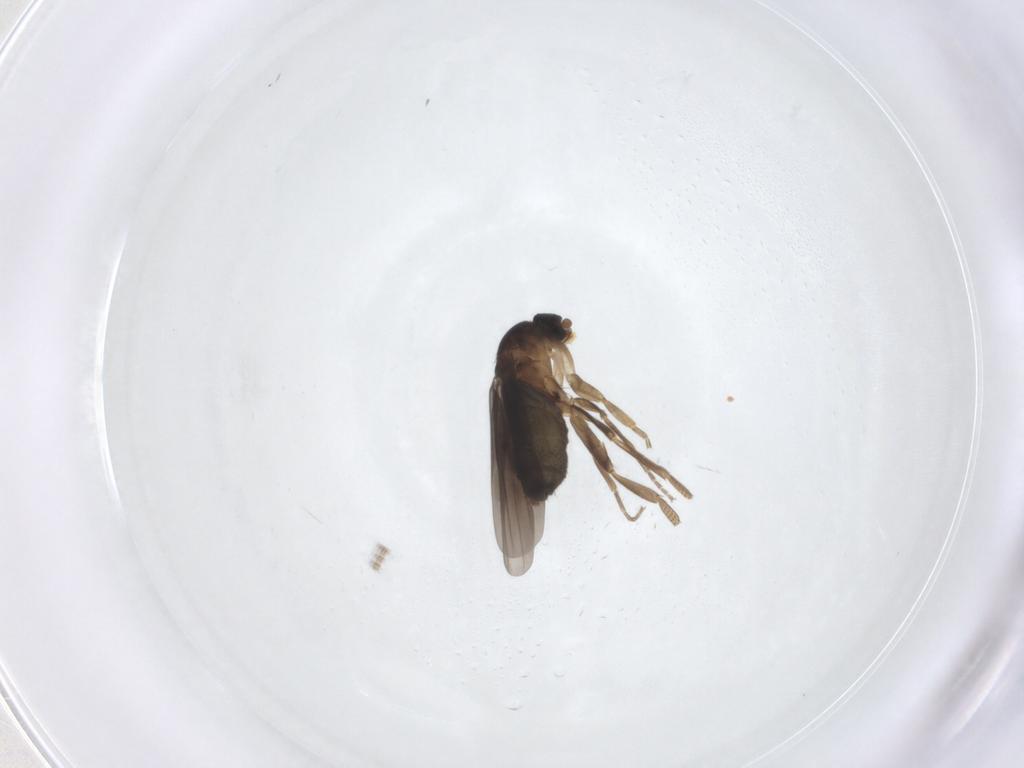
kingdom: Animalia
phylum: Arthropoda
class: Insecta
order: Diptera
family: Phoridae
